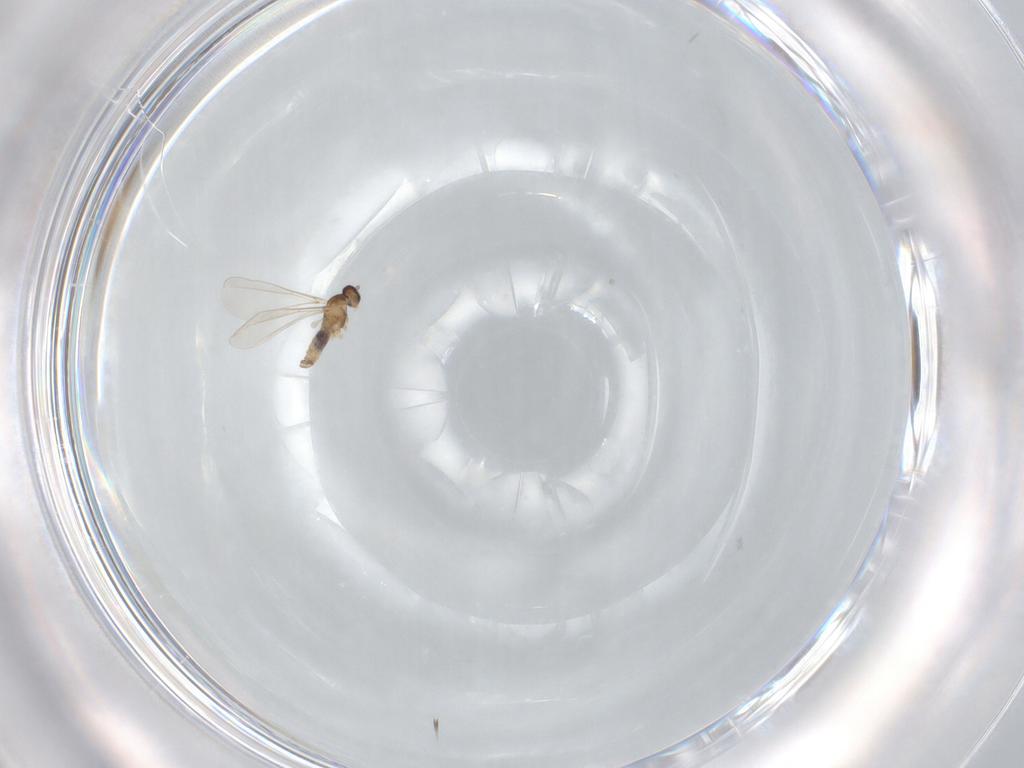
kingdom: Animalia
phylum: Arthropoda
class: Insecta
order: Diptera
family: Cecidomyiidae
